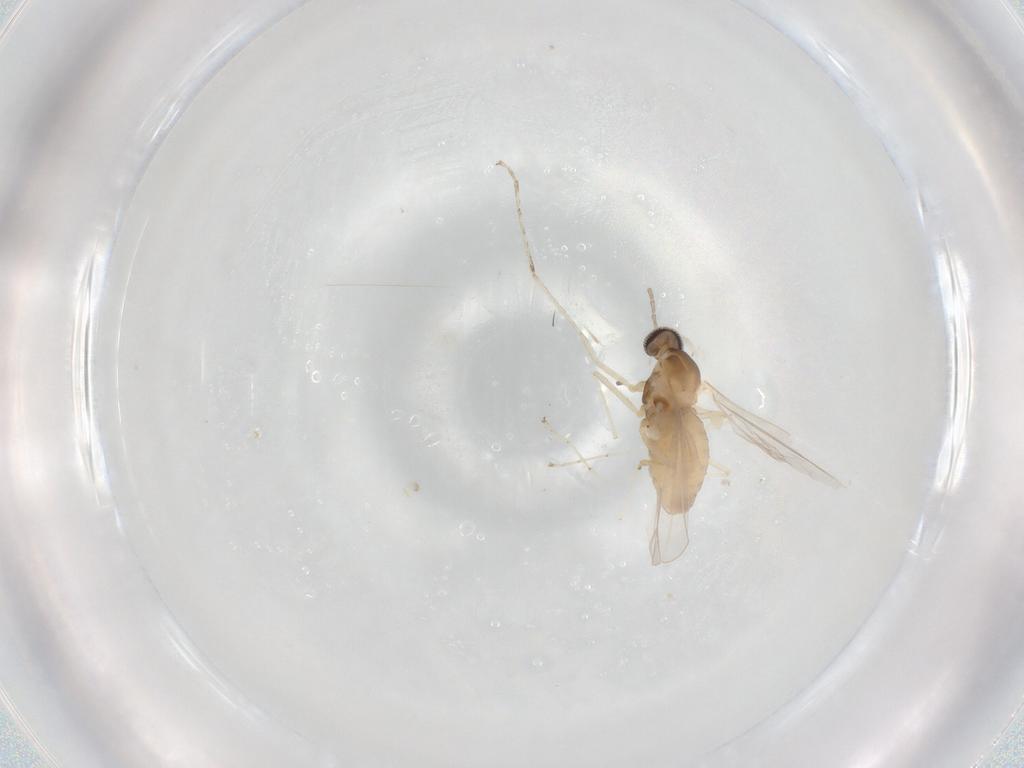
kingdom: Animalia
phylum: Arthropoda
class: Insecta
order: Diptera
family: Cecidomyiidae
